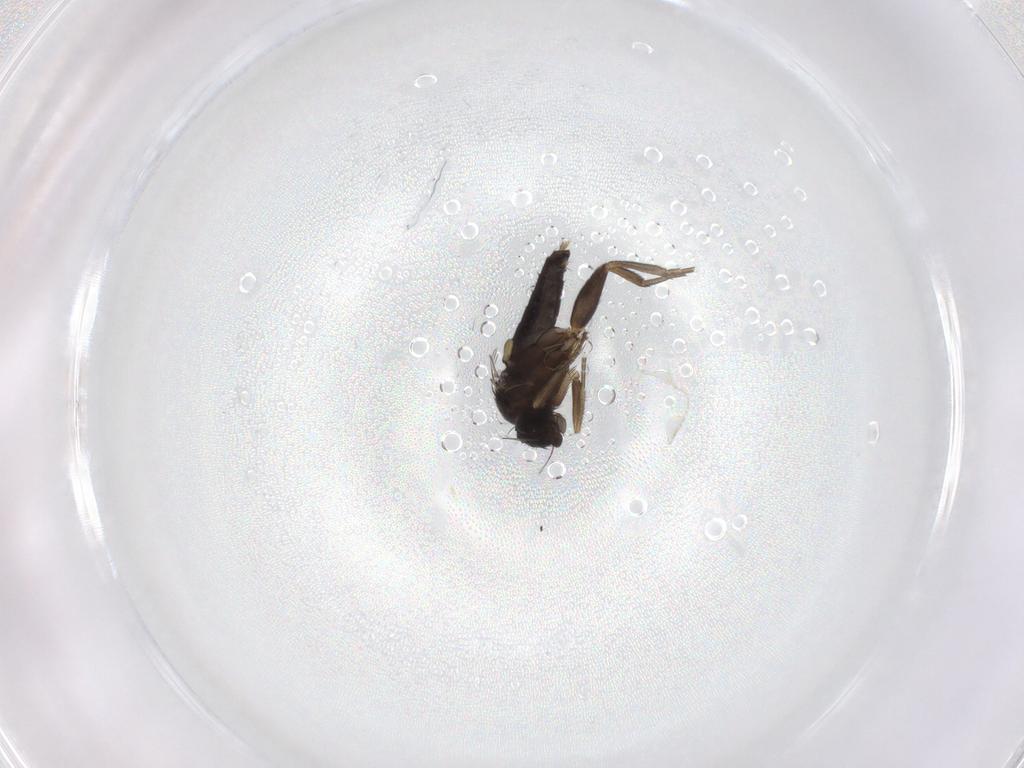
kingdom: Animalia
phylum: Arthropoda
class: Insecta
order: Diptera
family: Phoridae
